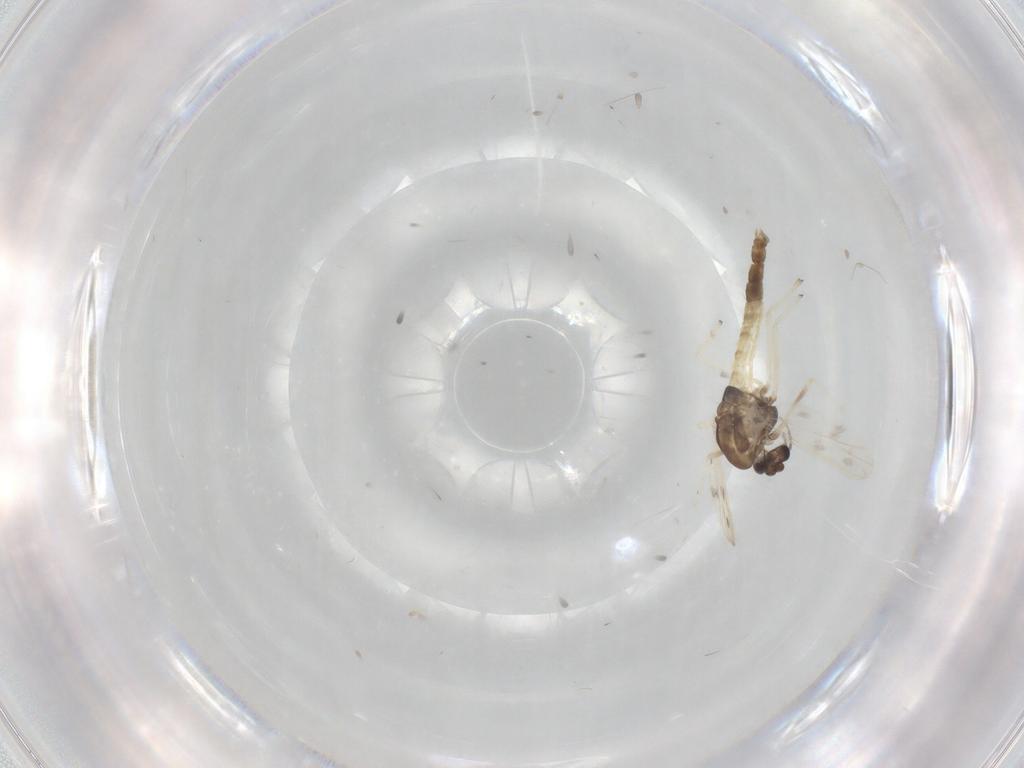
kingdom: Animalia
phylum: Arthropoda
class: Insecta
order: Diptera
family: Chironomidae
